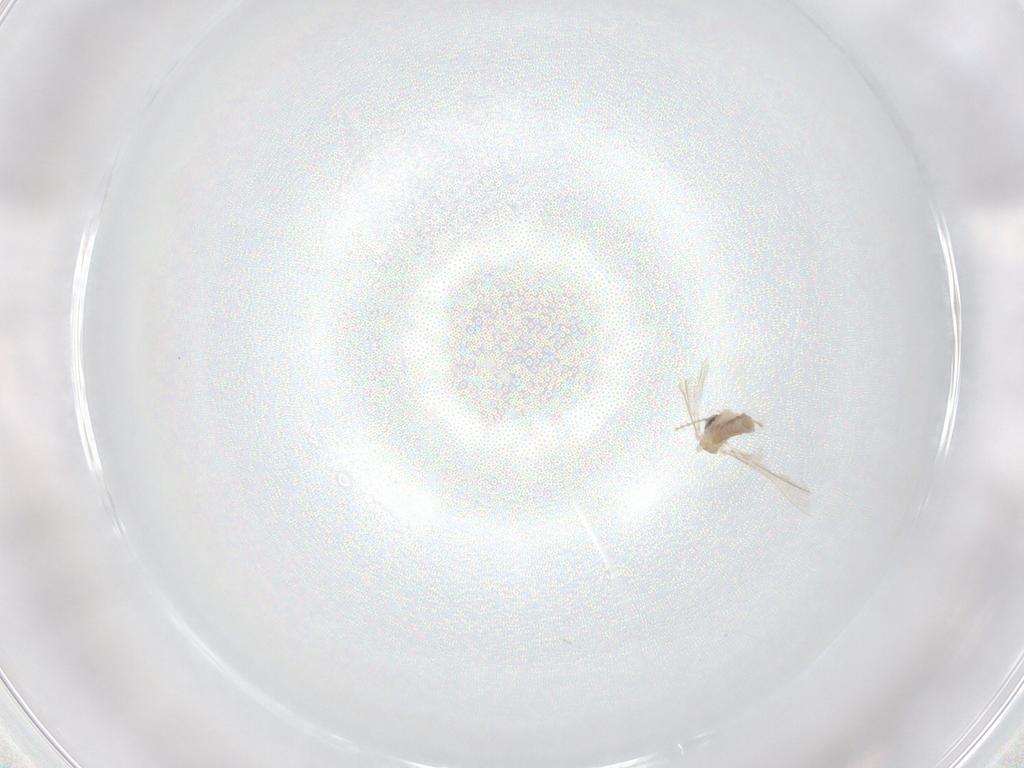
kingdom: Animalia
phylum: Arthropoda
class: Insecta
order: Diptera
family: Cecidomyiidae
